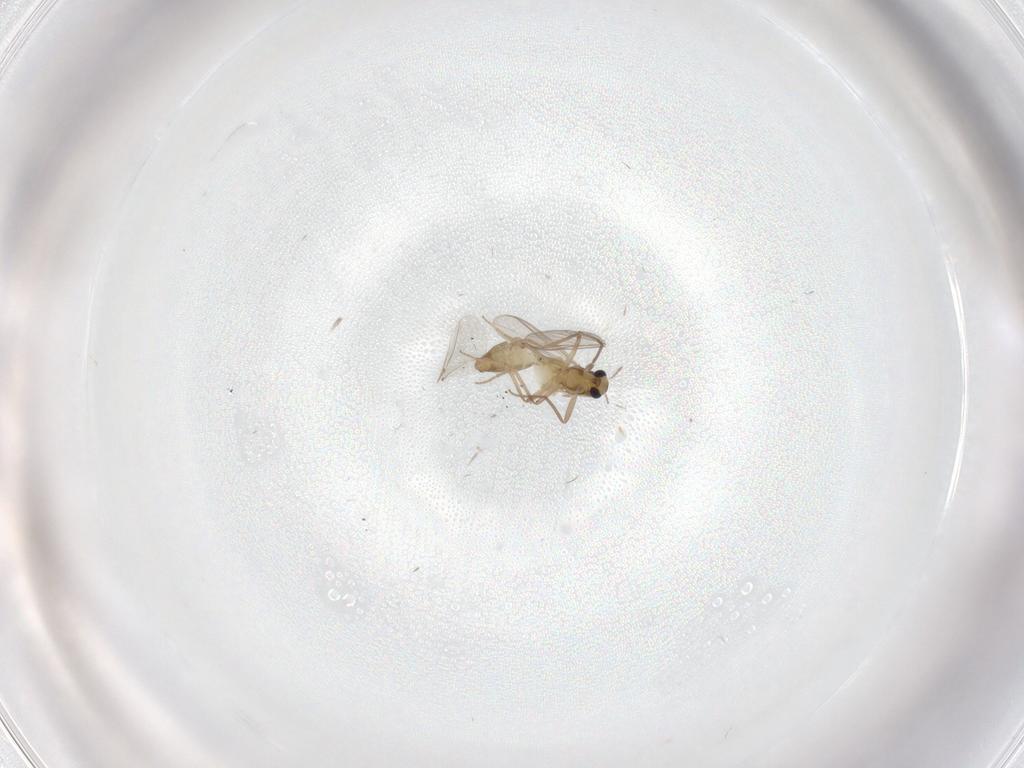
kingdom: Animalia
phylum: Arthropoda
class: Insecta
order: Diptera
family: Chironomidae
